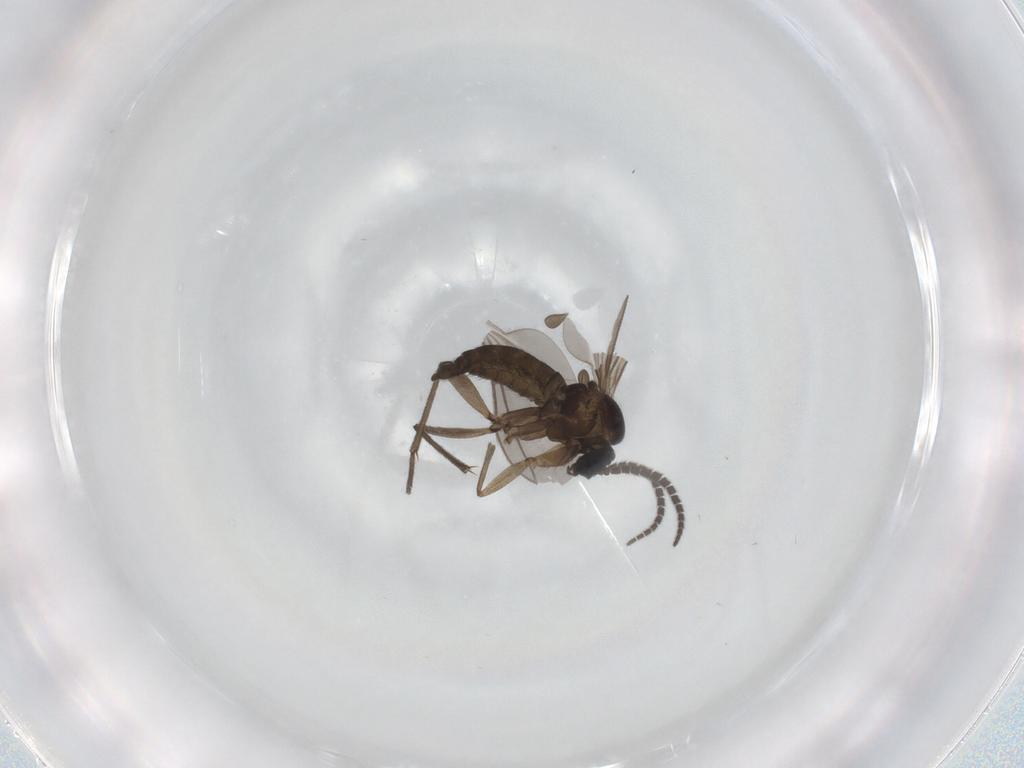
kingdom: Animalia
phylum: Arthropoda
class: Insecta
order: Diptera
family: Sciaridae
